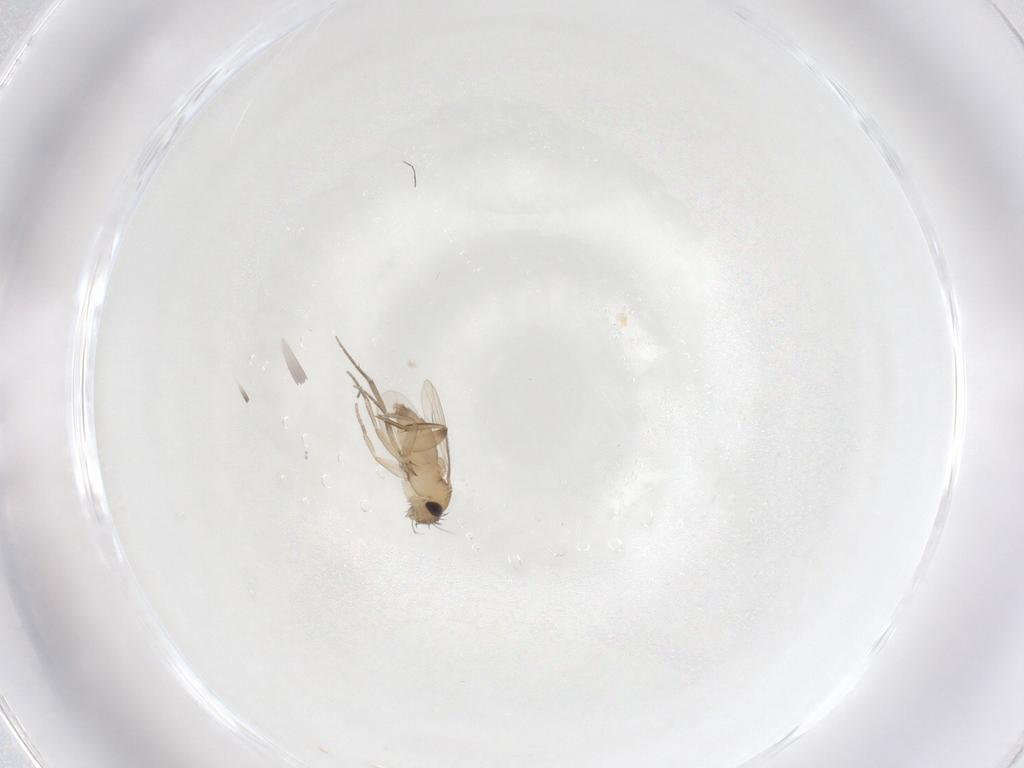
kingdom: Animalia
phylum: Arthropoda
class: Insecta
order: Diptera
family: Phoridae
